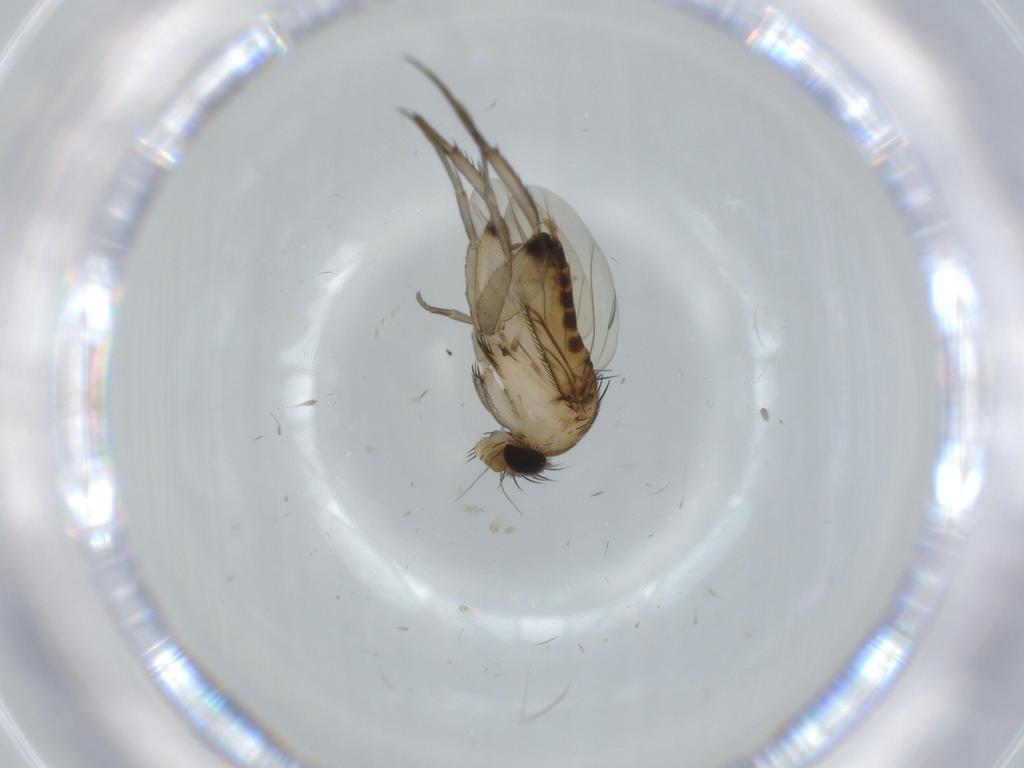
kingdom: Animalia
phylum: Arthropoda
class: Insecta
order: Diptera
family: Phoridae
